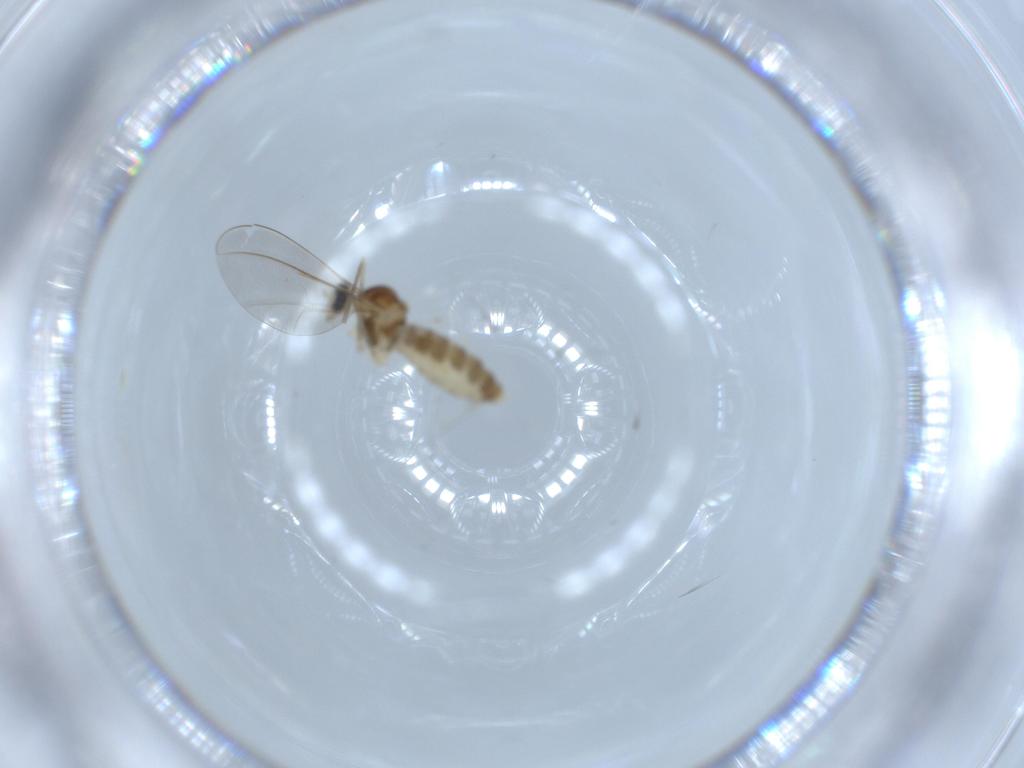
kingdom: Animalia
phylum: Arthropoda
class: Insecta
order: Diptera
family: Cecidomyiidae
